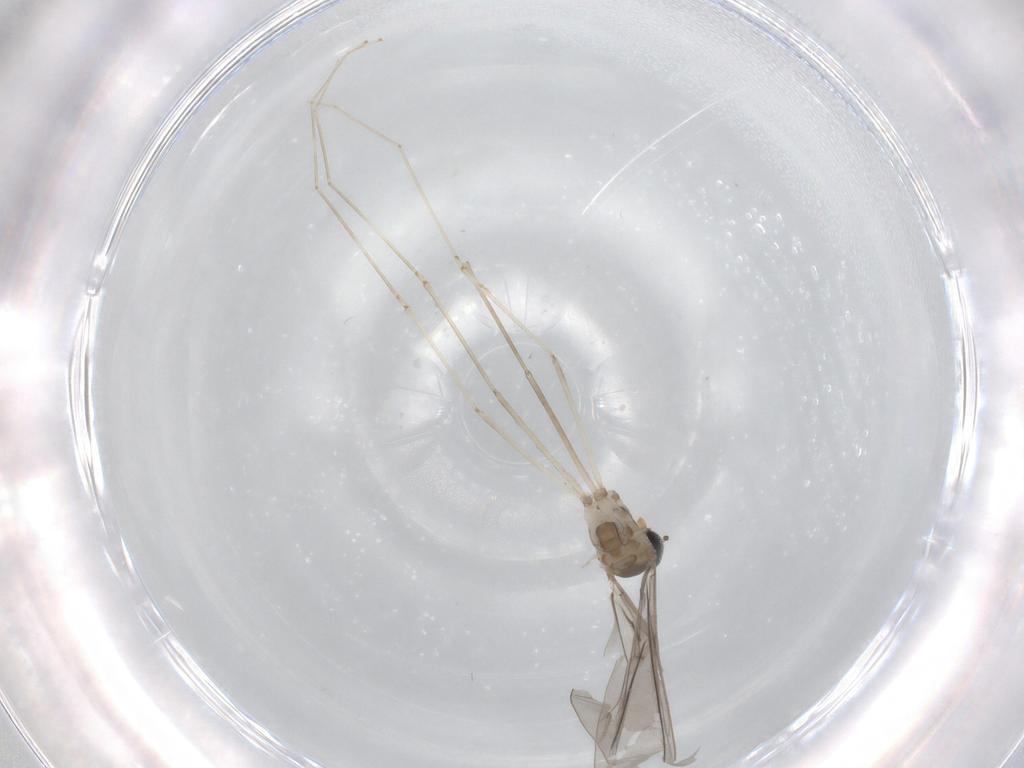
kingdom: Animalia
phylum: Arthropoda
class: Insecta
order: Diptera
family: Cecidomyiidae
